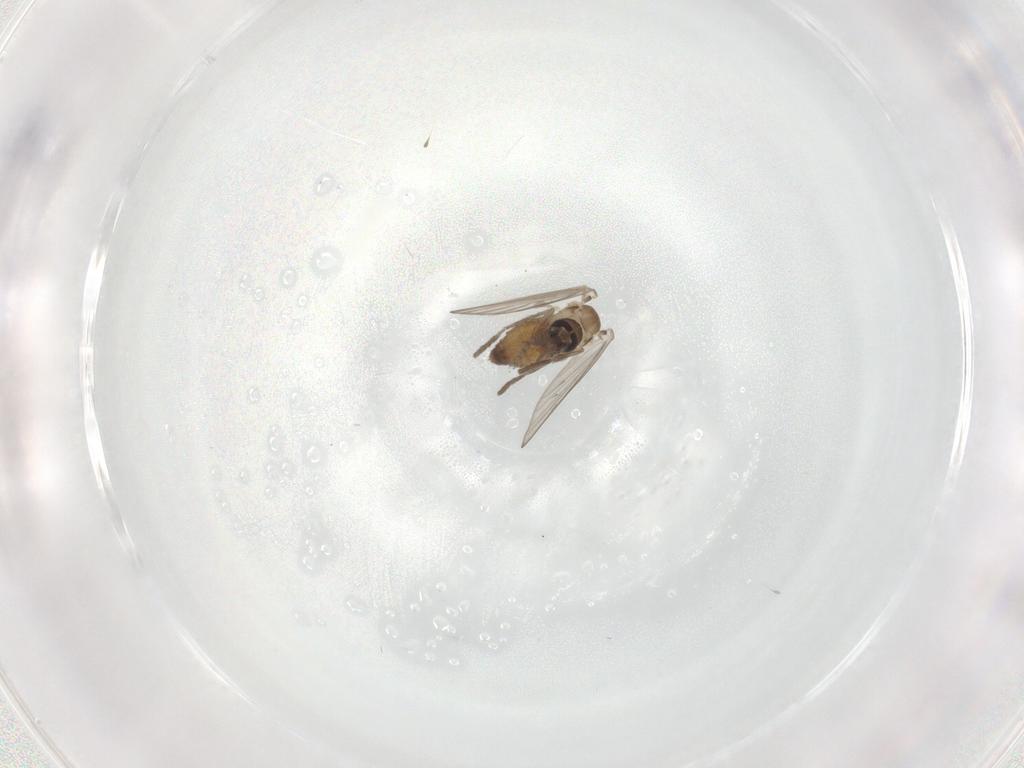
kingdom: Animalia
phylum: Arthropoda
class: Insecta
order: Diptera
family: Psychodidae
